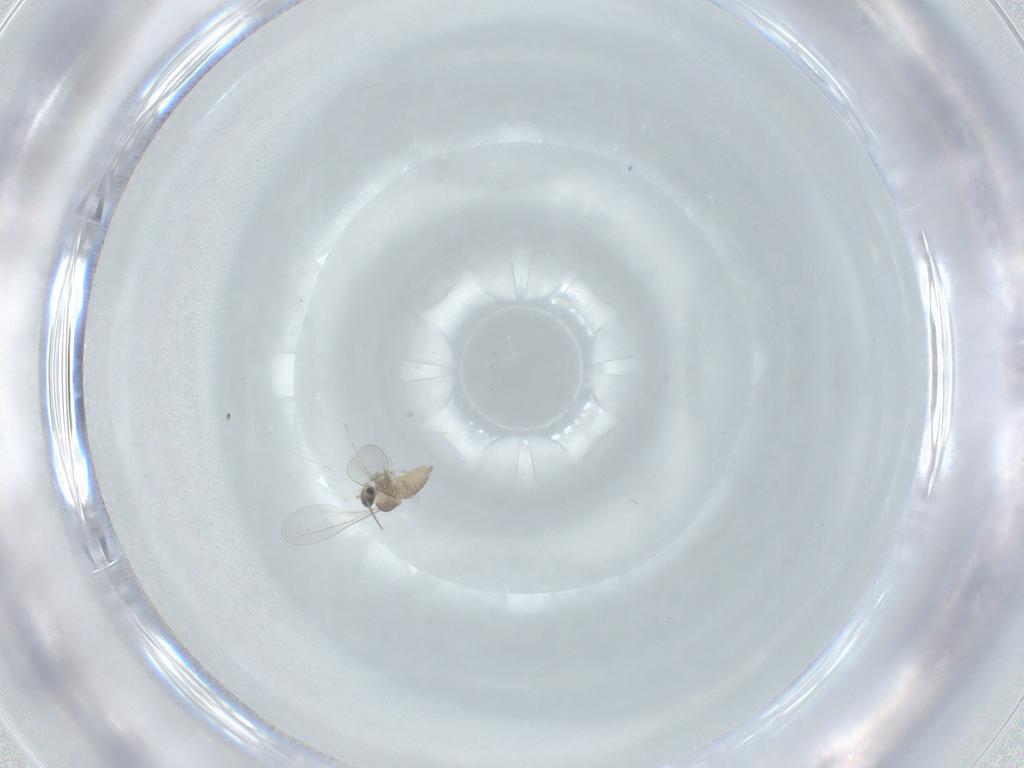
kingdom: Animalia
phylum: Arthropoda
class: Insecta
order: Diptera
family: Cecidomyiidae
